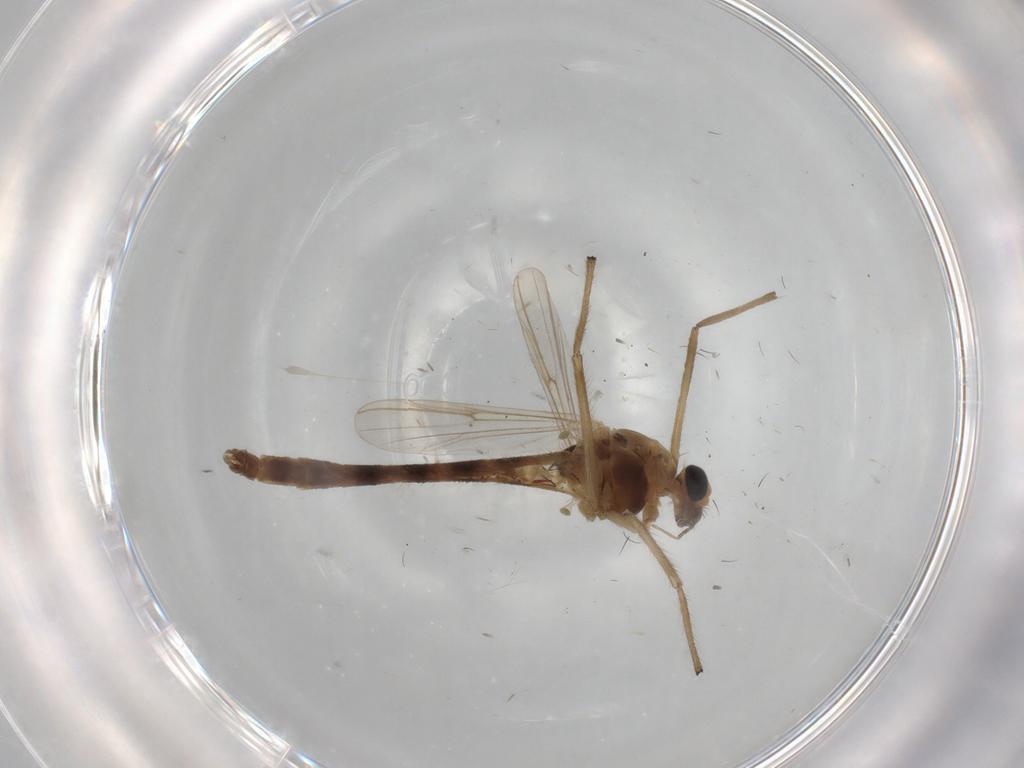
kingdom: Animalia
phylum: Arthropoda
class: Insecta
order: Diptera
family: Chironomidae
